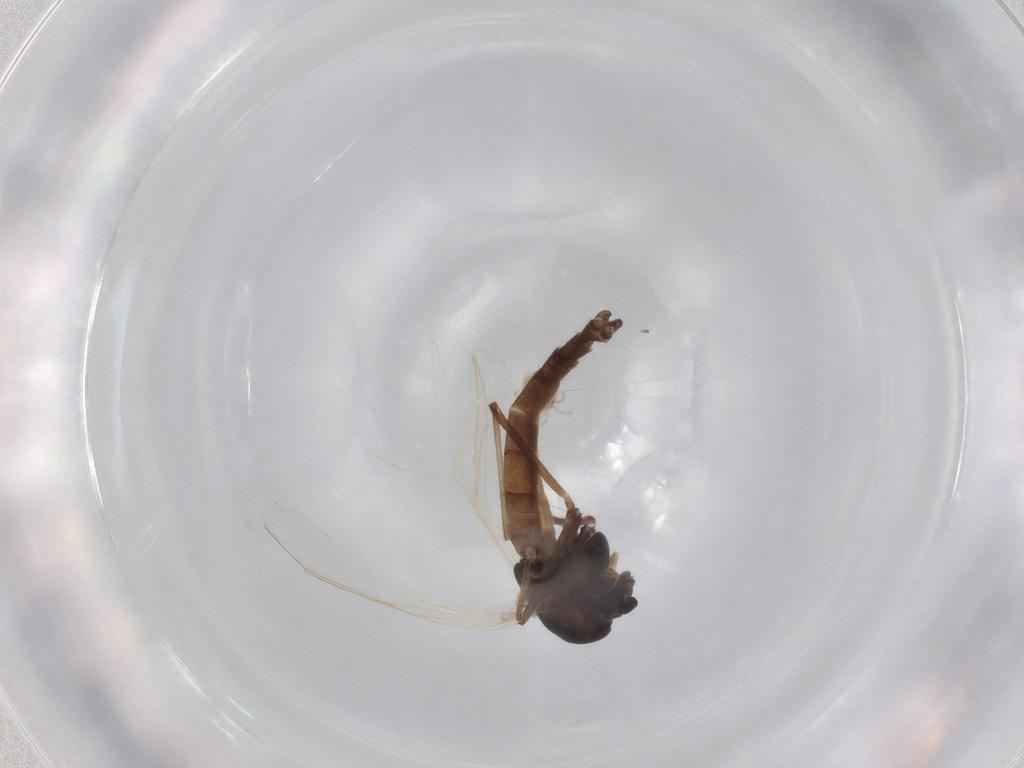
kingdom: Animalia
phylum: Arthropoda
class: Insecta
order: Diptera
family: Chironomidae
